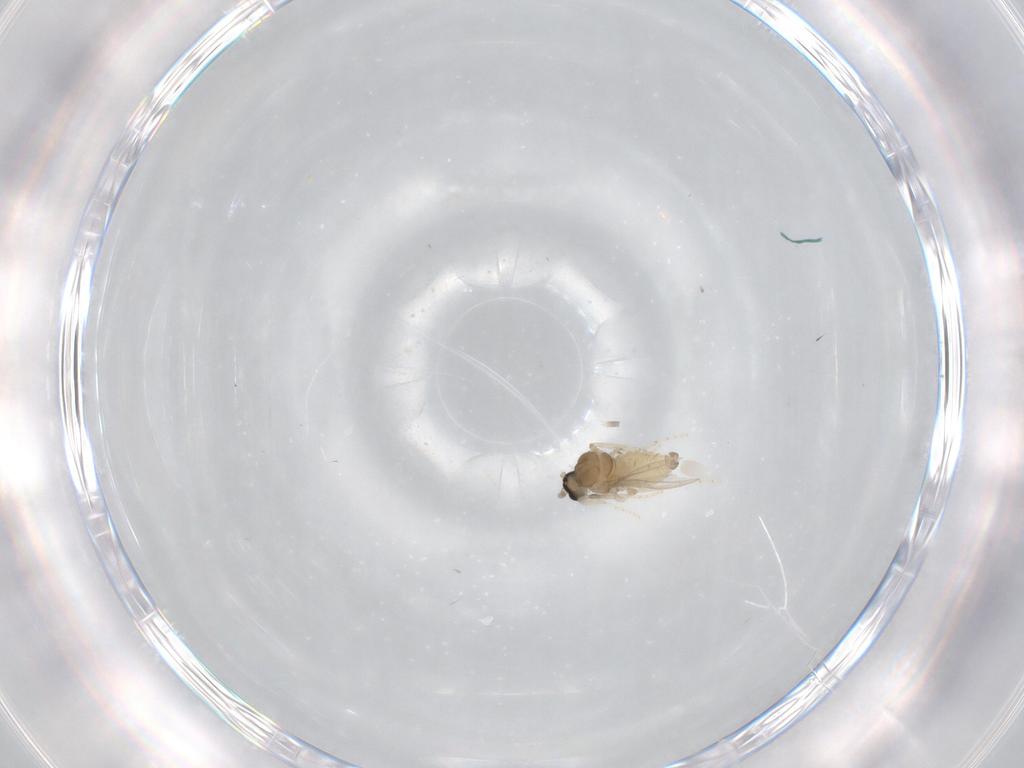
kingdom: Animalia
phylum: Arthropoda
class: Insecta
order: Diptera
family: Cecidomyiidae
